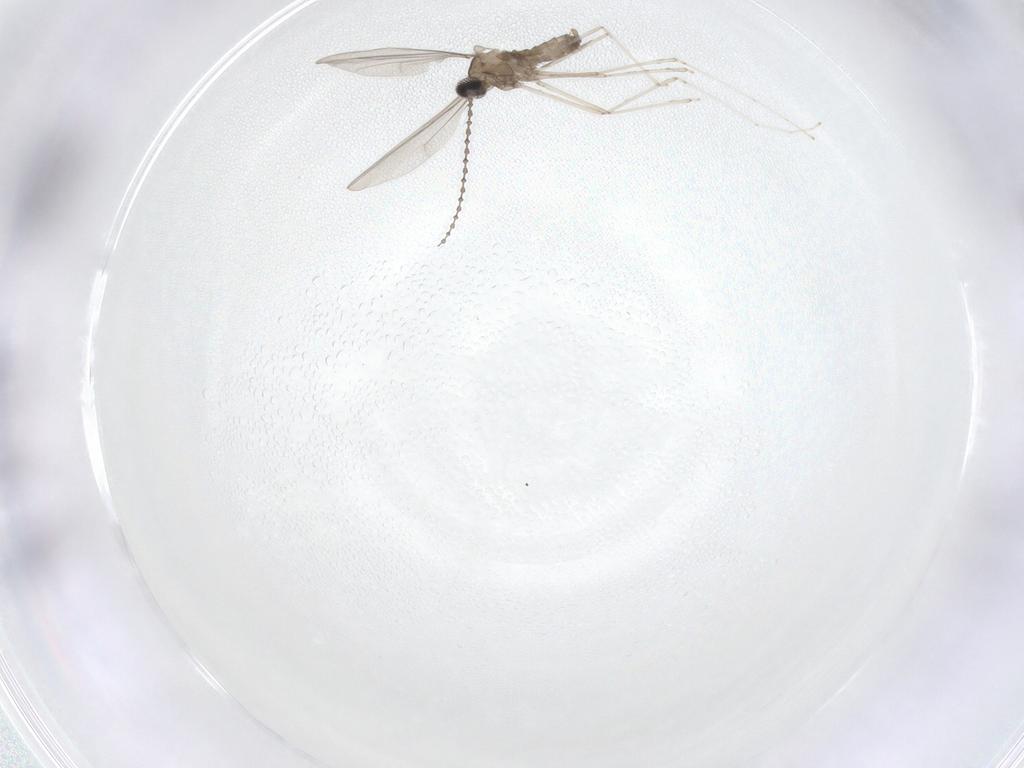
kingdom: Animalia
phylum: Arthropoda
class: Insecta
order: Diptera
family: Cecidomyiidae
